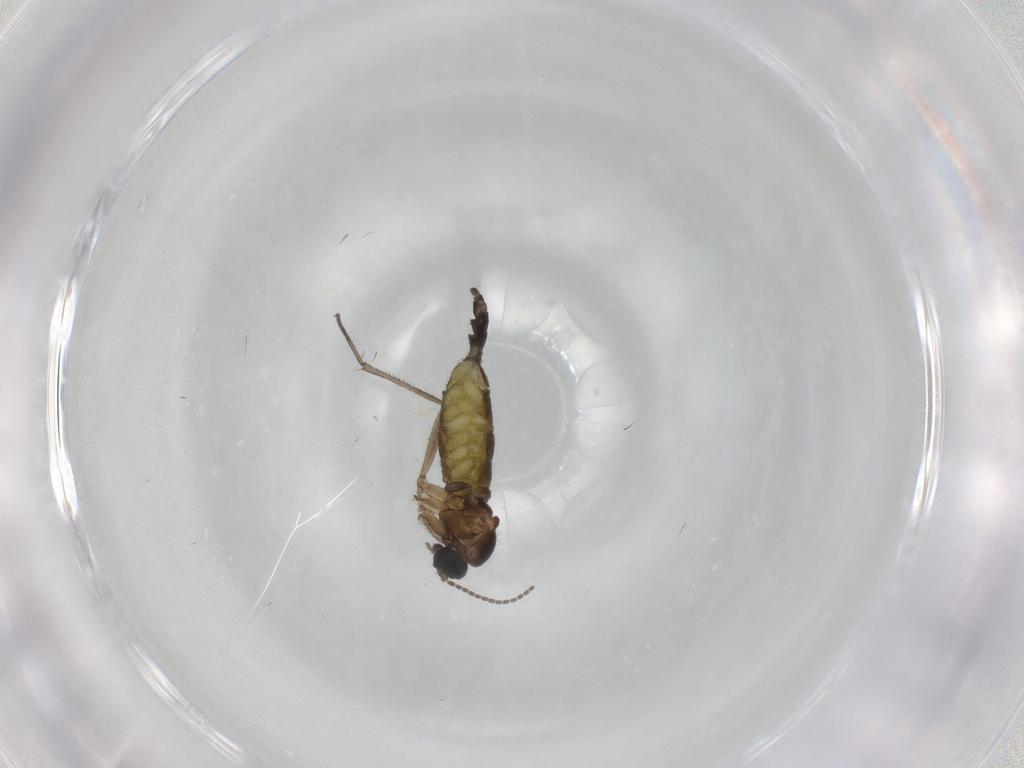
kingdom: Animalia
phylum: Arthropoda
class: Insecta
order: Diptera
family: Sciaridae
